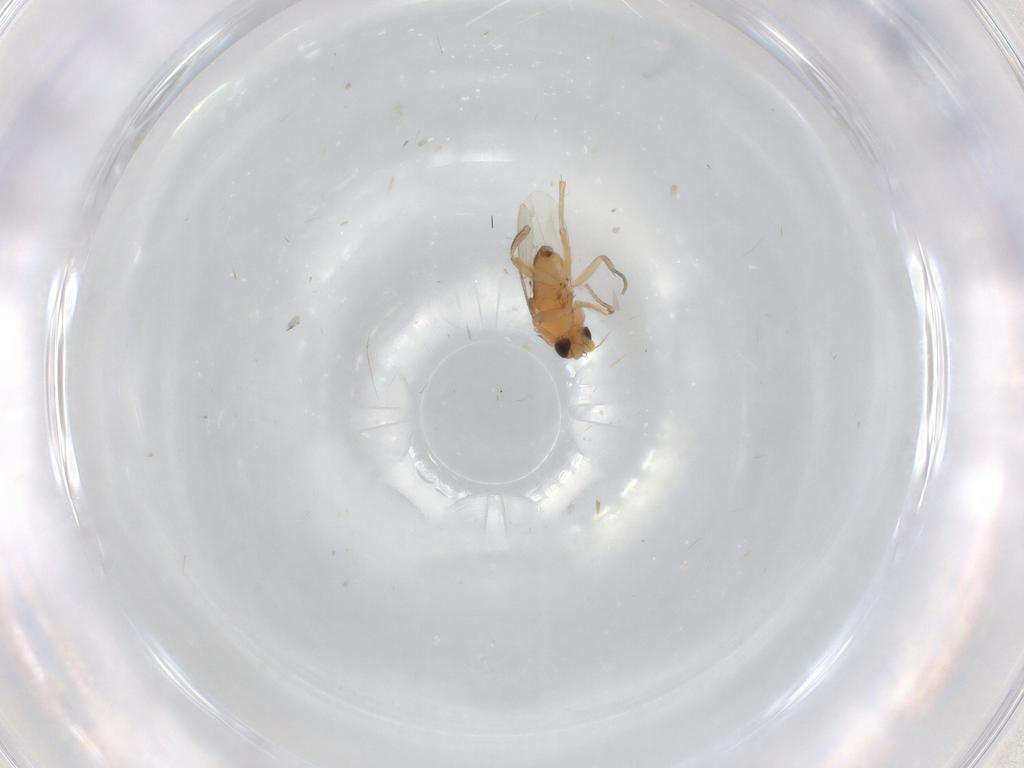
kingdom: Animalia
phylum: Arthropoda
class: Insecta
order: Diptera
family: Phoridae
